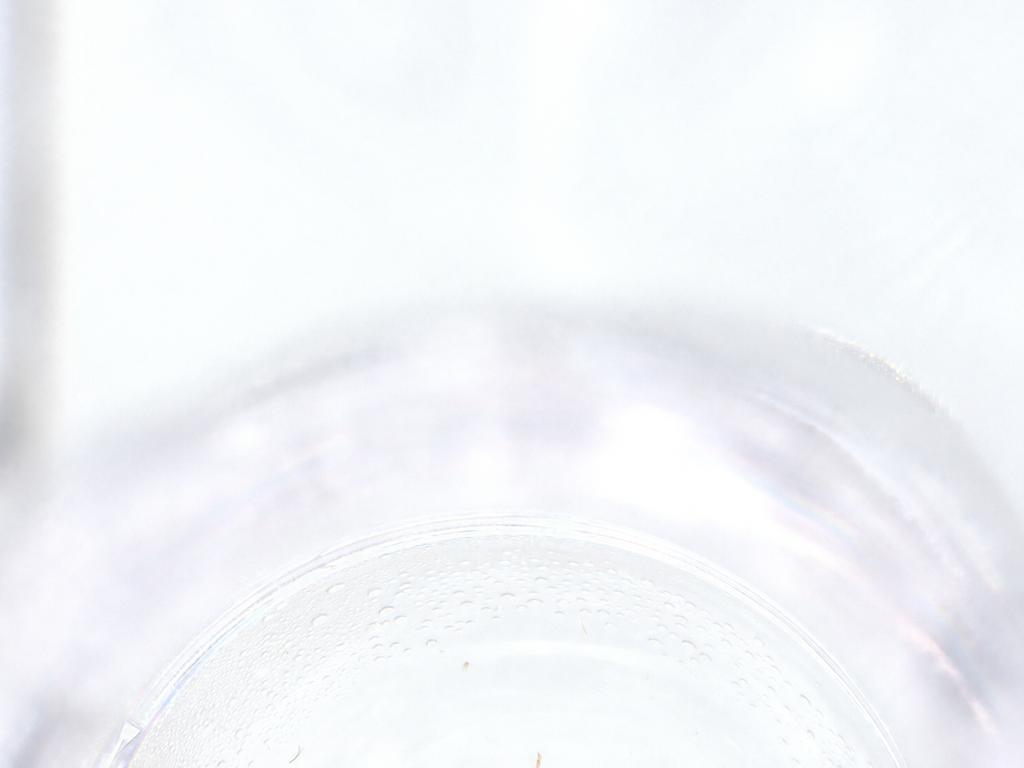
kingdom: Animalia
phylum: Arthropoda
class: Insecta
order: Diptera
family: Ceratopogonidae
